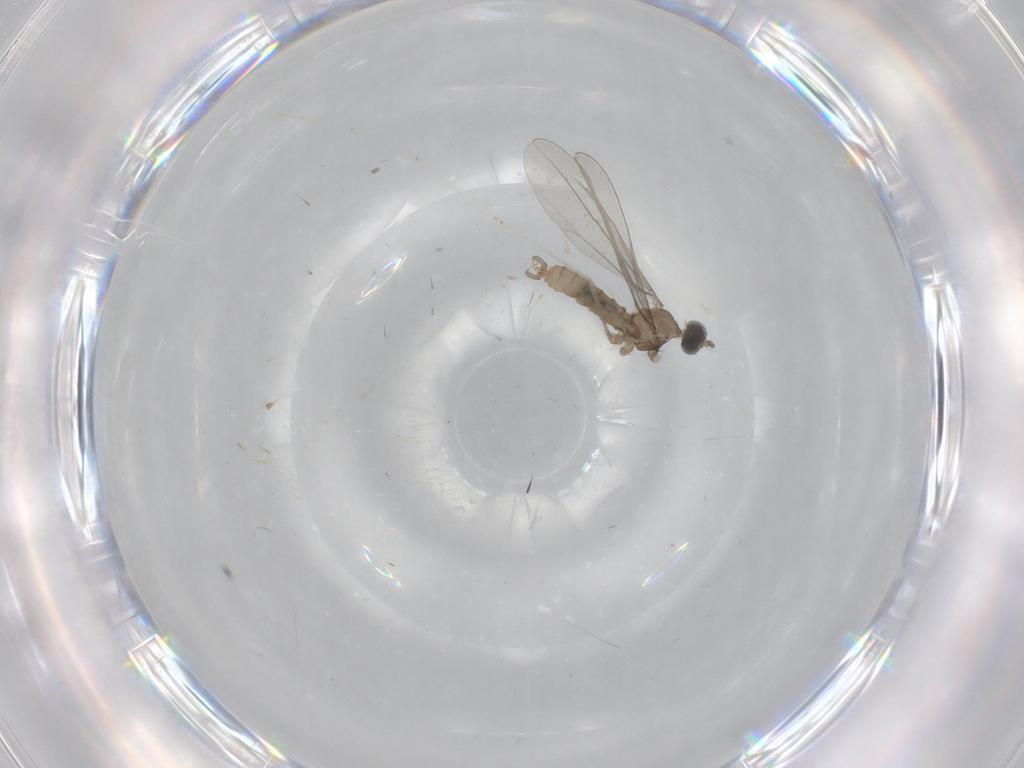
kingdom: Animalia
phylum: Arthropoda
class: Insecta
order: Diptera
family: Cecidomyiidae
